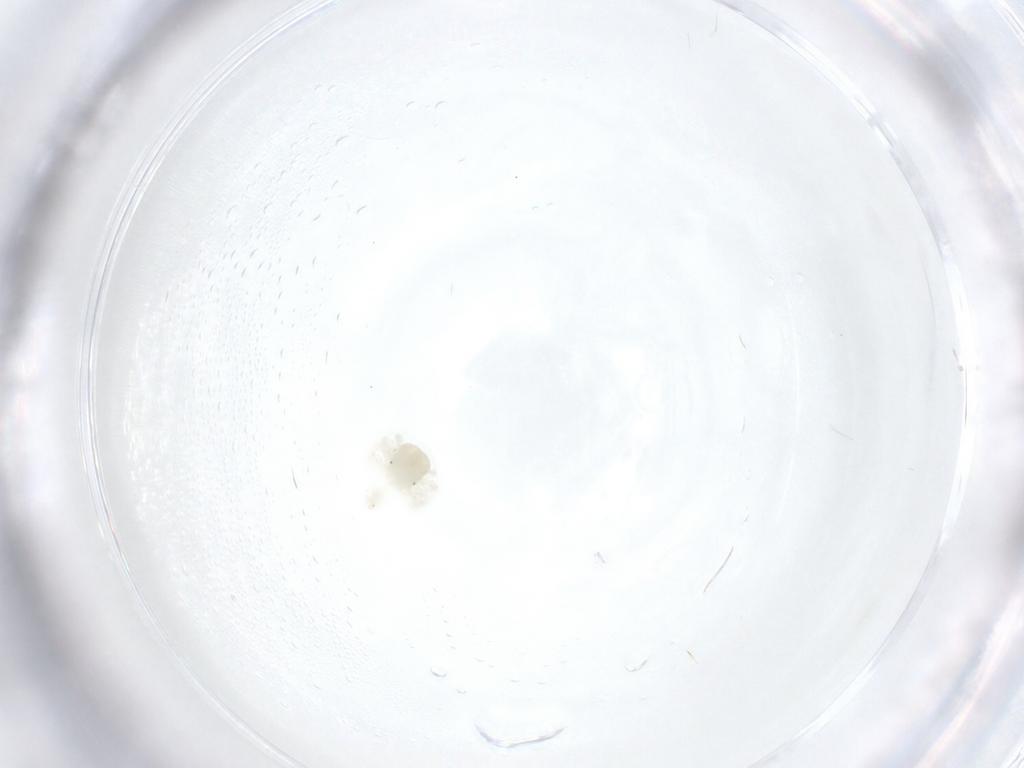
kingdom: Animalia
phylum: Arthropoda
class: Arachnida
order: Trombidiformes
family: Anystidae
